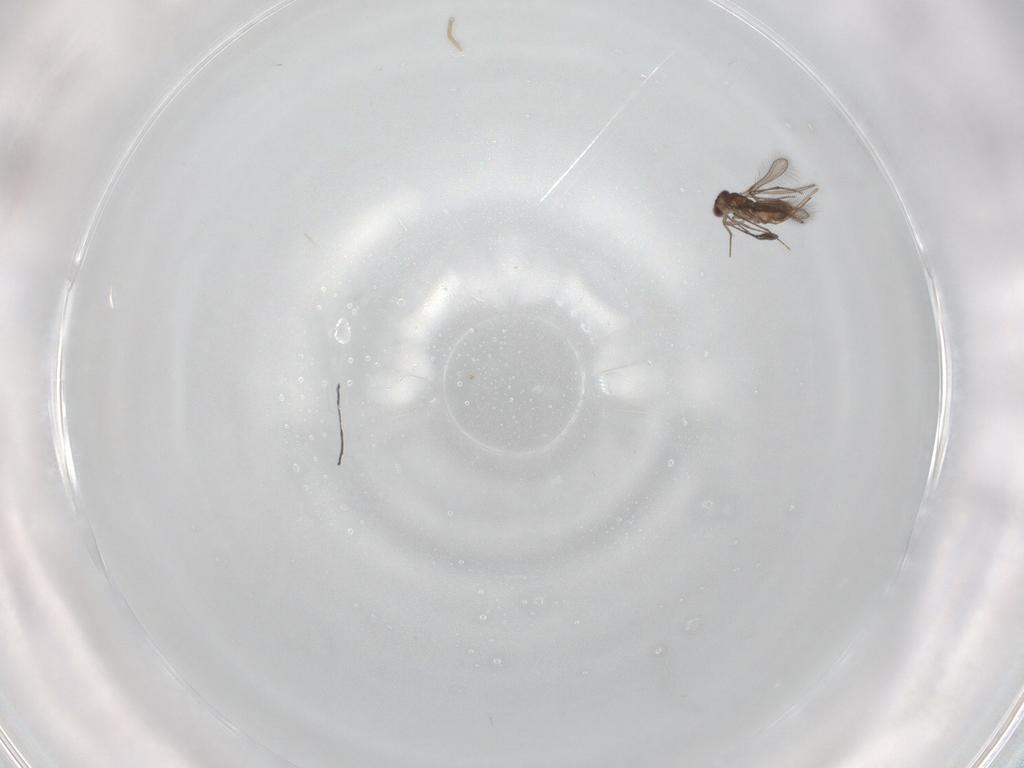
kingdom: Animalia
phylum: Arthropoda
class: Insecta
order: Hymenoptera
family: Mymaridae
